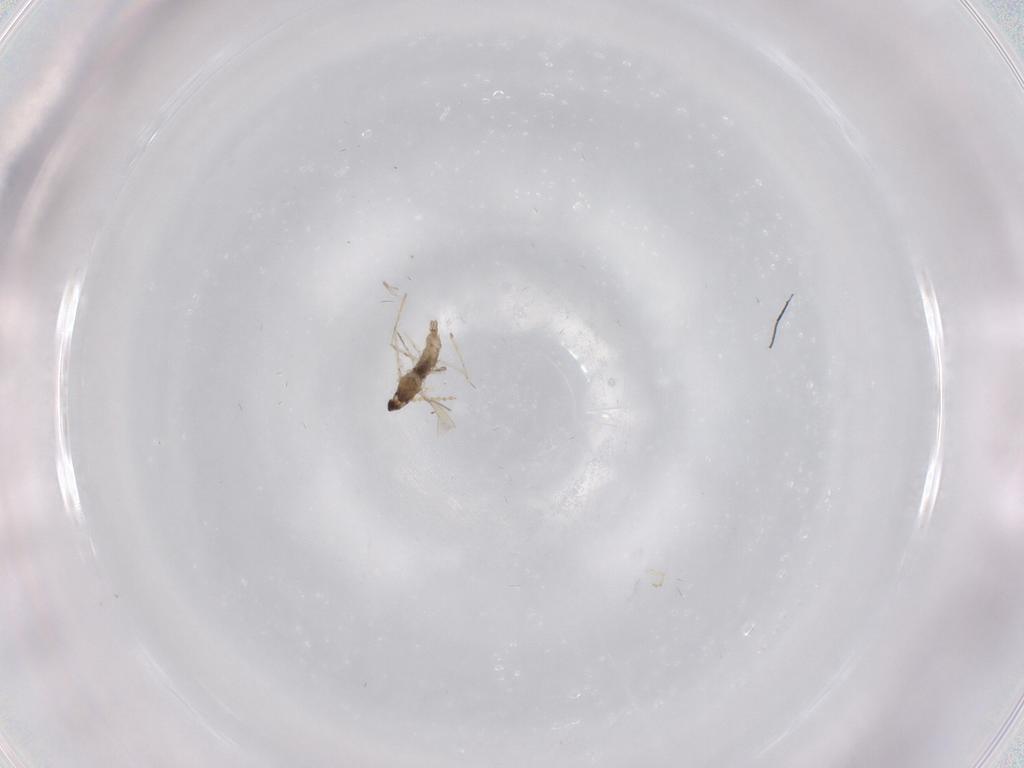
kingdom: Animalia
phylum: Arthropoda
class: Insecta
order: Diptera
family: Cecidomyiidae
